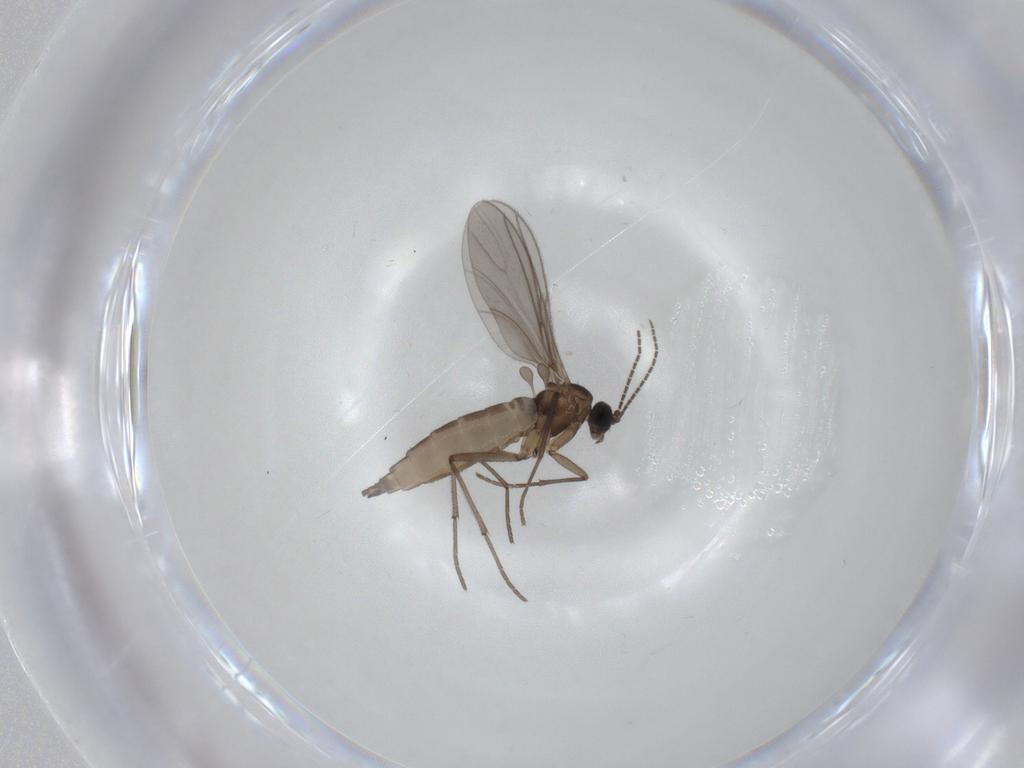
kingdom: Animalia
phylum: Arthropoda
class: Insecta
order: Diptera
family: Sciaridae
